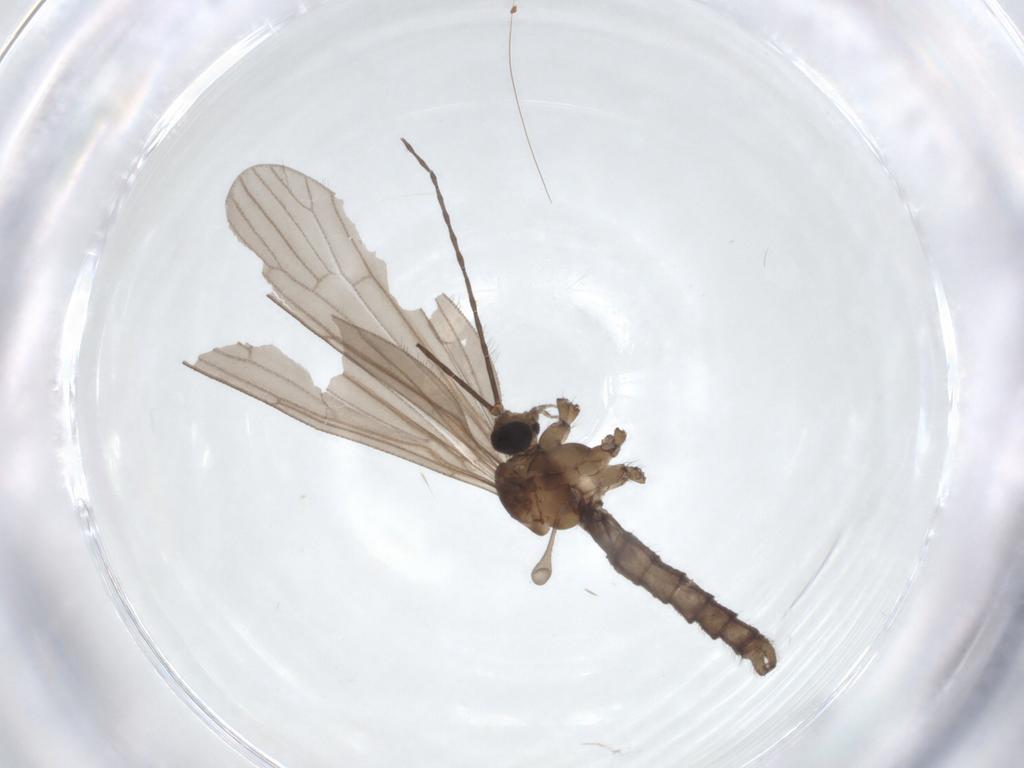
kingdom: Animalia
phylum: Arthropoda
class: Insecta
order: Diptera
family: Limoniidae
